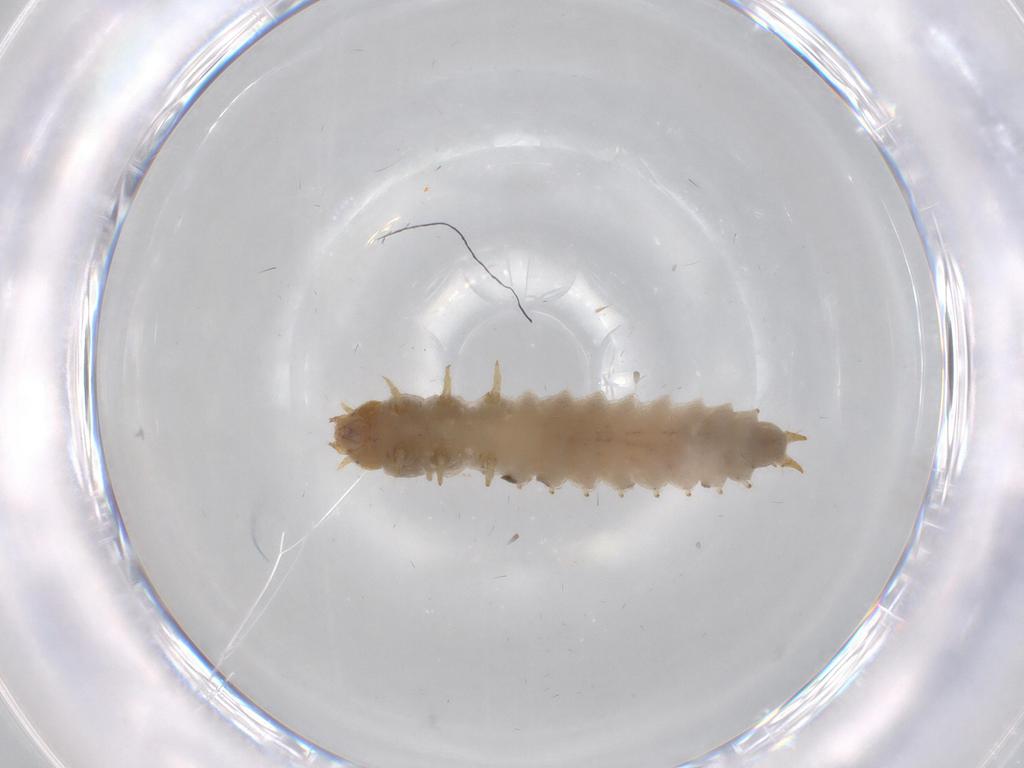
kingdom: Animalia
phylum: Arthropoda
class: Insecta
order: Coleoptera
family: Nitidulidae
